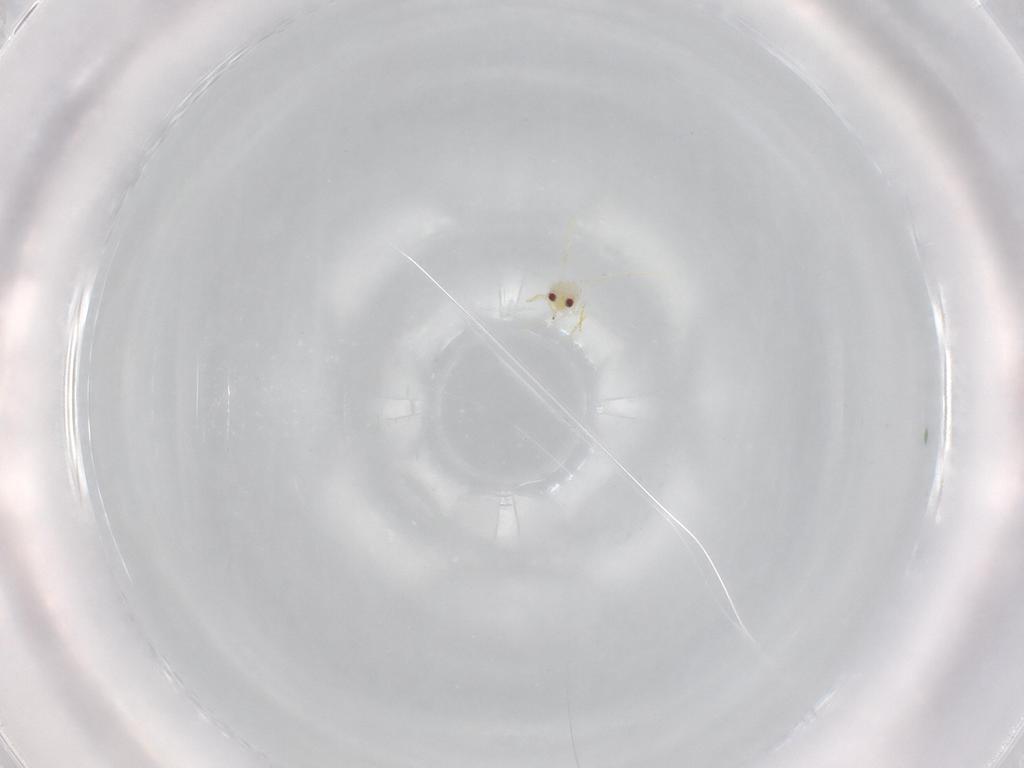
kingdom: Animalia
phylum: Arthropoda
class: Insecta
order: Hemiptera
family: Aleyrodidae
